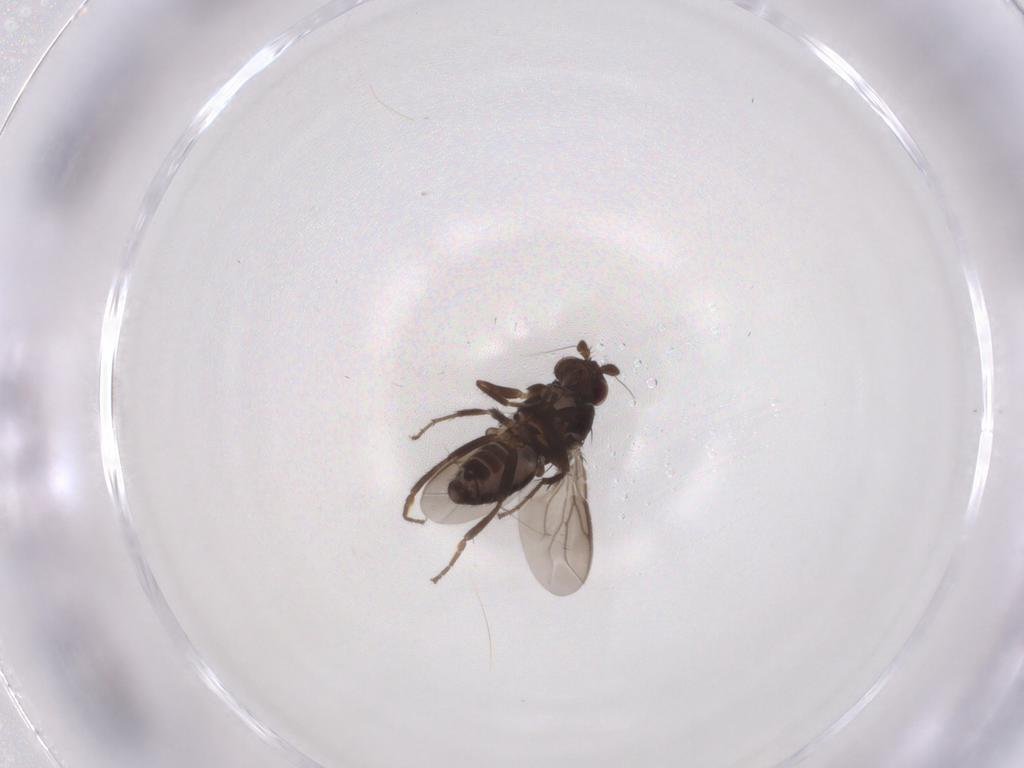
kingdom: Animalia
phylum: Arthropoda
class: Insecta
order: Diptera
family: Sphaeroceridae
